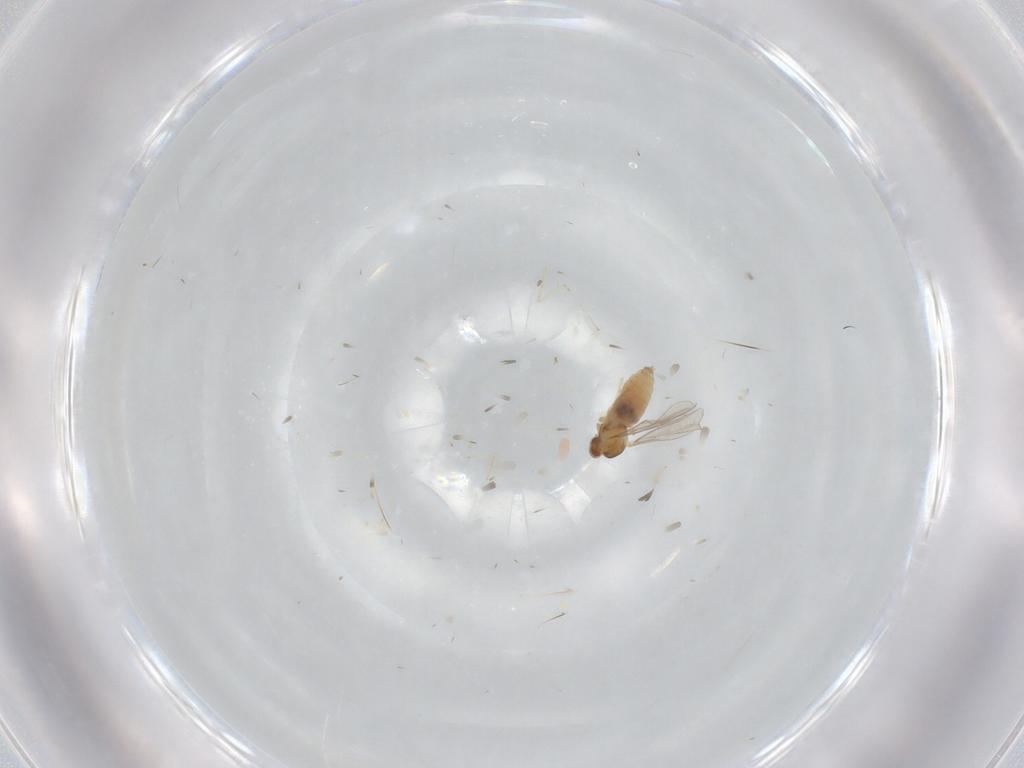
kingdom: Animalia
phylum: Arthropoda
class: Insecta
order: Diptera
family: Cecidomyiidae
